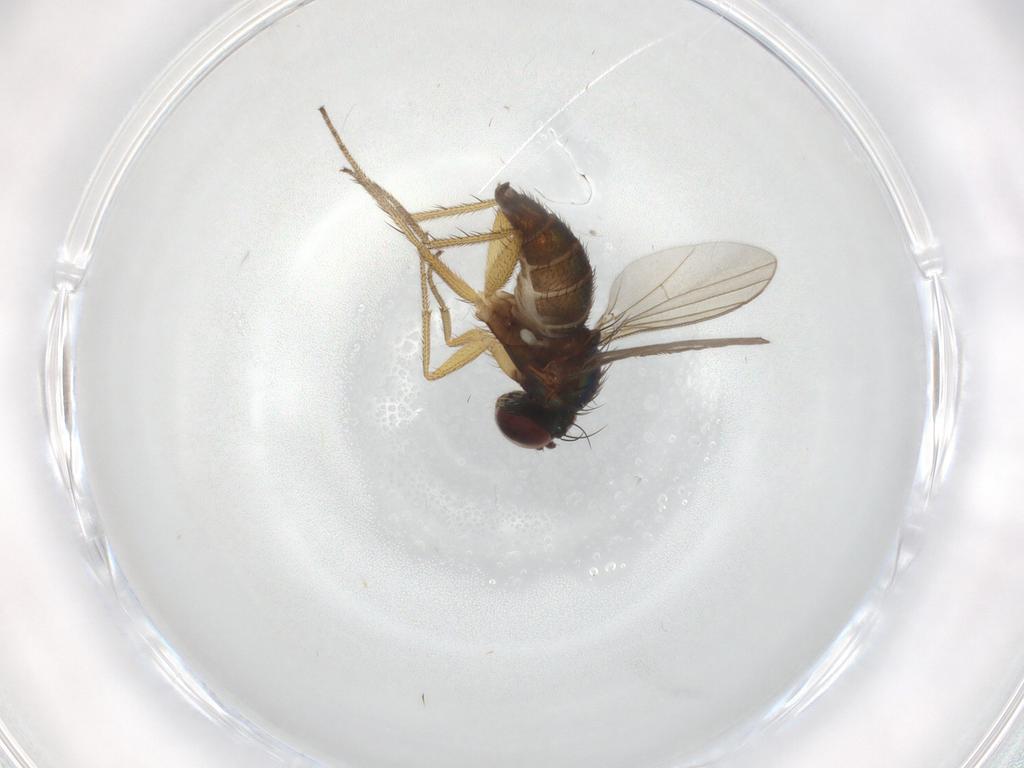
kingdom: Animalia
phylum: Arthropoda
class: Insecta
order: Diptera
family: Dolichopodidae
